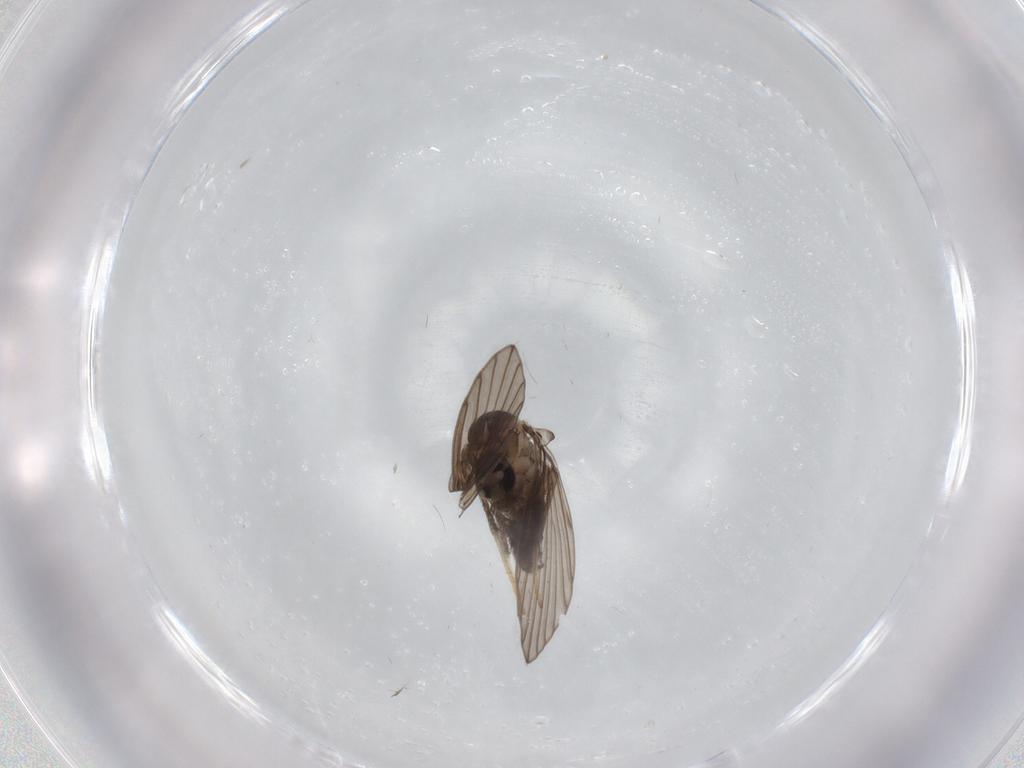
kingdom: Animalia
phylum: Arthropoda
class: Insecta
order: Diptera
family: Psychodidae
